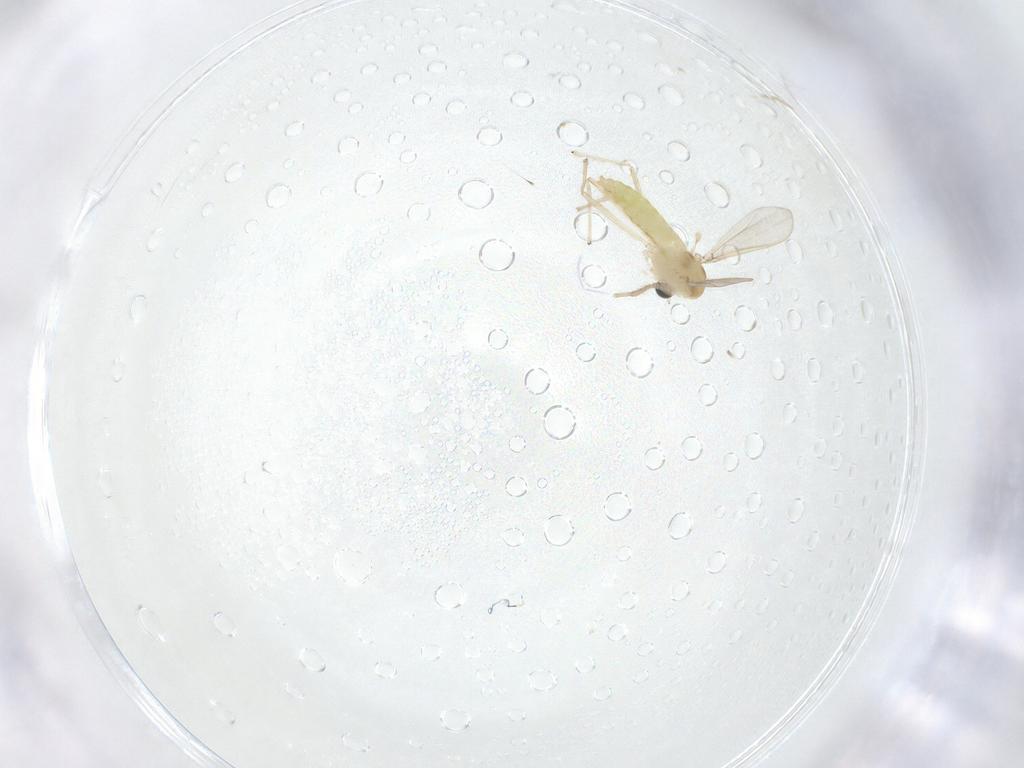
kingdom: Animalia
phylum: Arthropoda
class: Insecta
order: Diptera
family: Chironomidae
